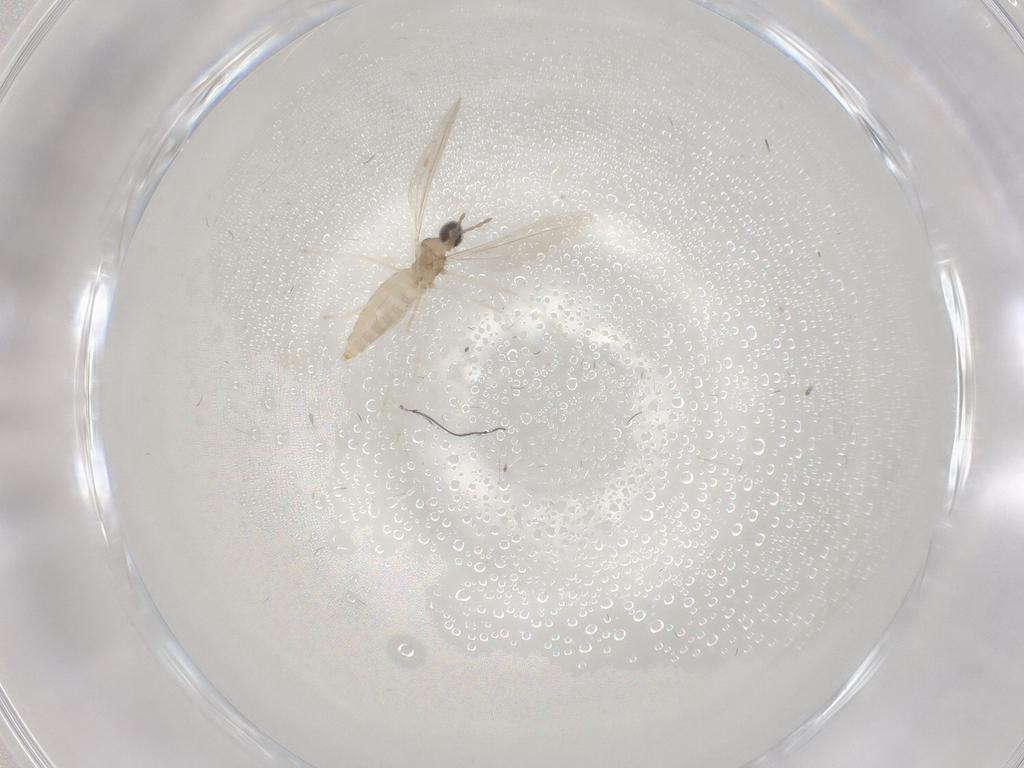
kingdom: Animalia
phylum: Arthropoda
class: Insecta
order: Diptera
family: Cecidomyiidae
